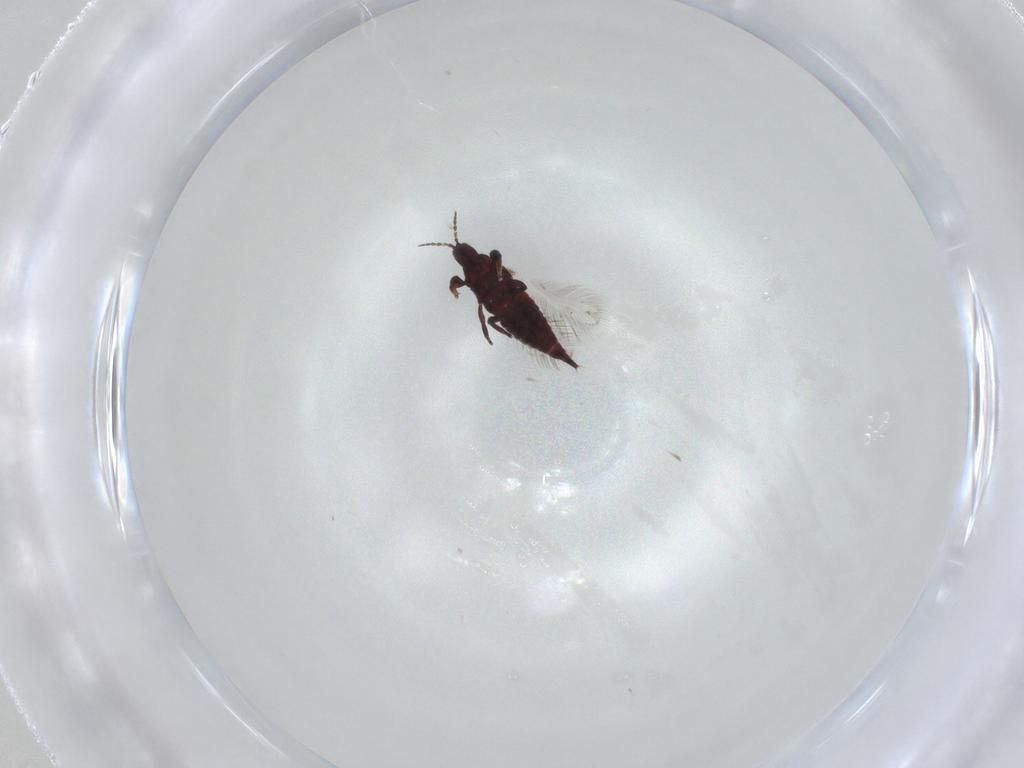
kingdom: Animalia
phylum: Arthropoda
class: Insecta
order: Thysanoptera
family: Phlaeothripidae
